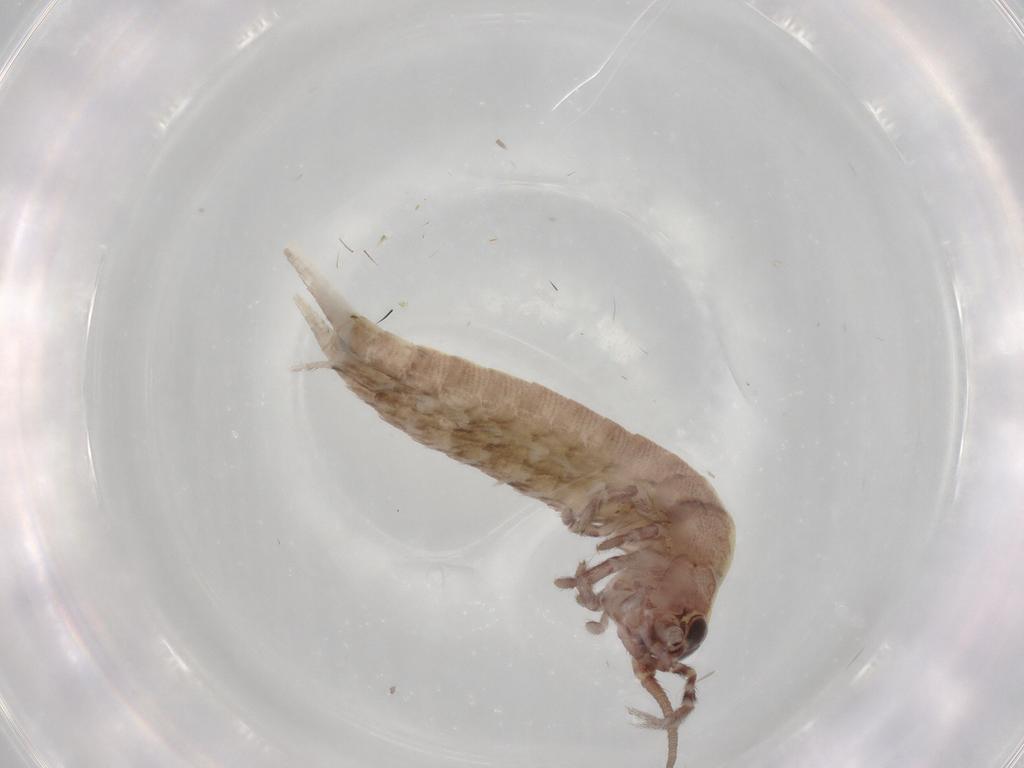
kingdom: Animalia
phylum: Arthropoda
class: Insecta
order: Archaeognatha
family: Machilidae
